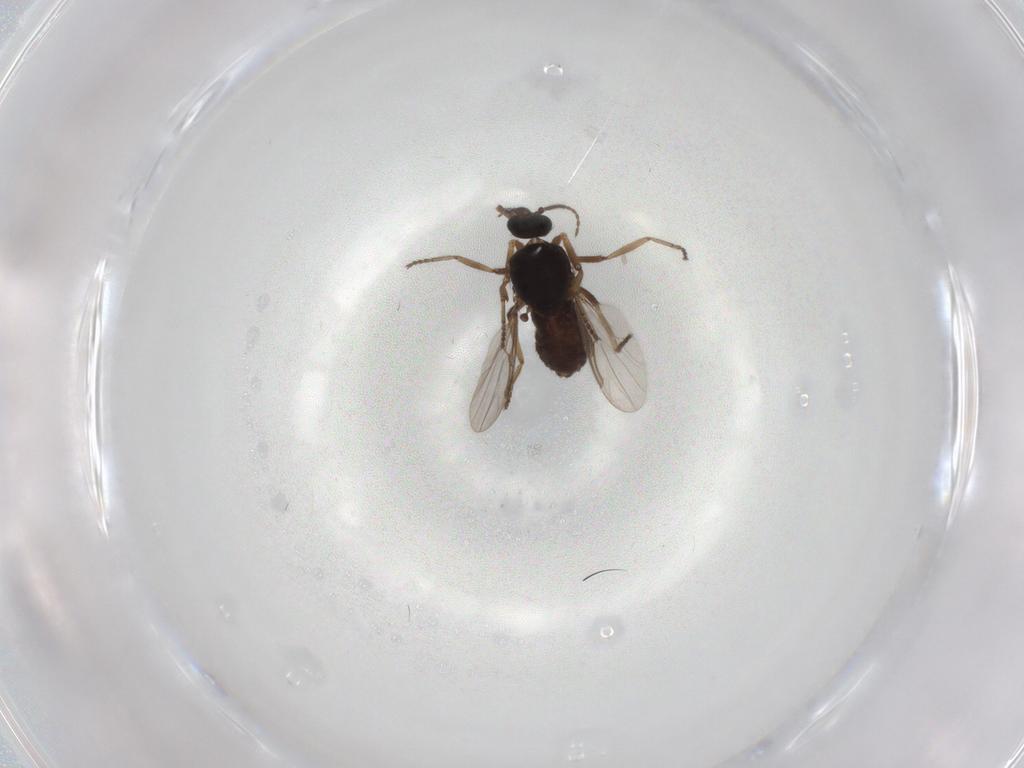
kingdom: Animalia
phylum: Arthropoda
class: Insecta
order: Diptera
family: Ceratopogonidae
